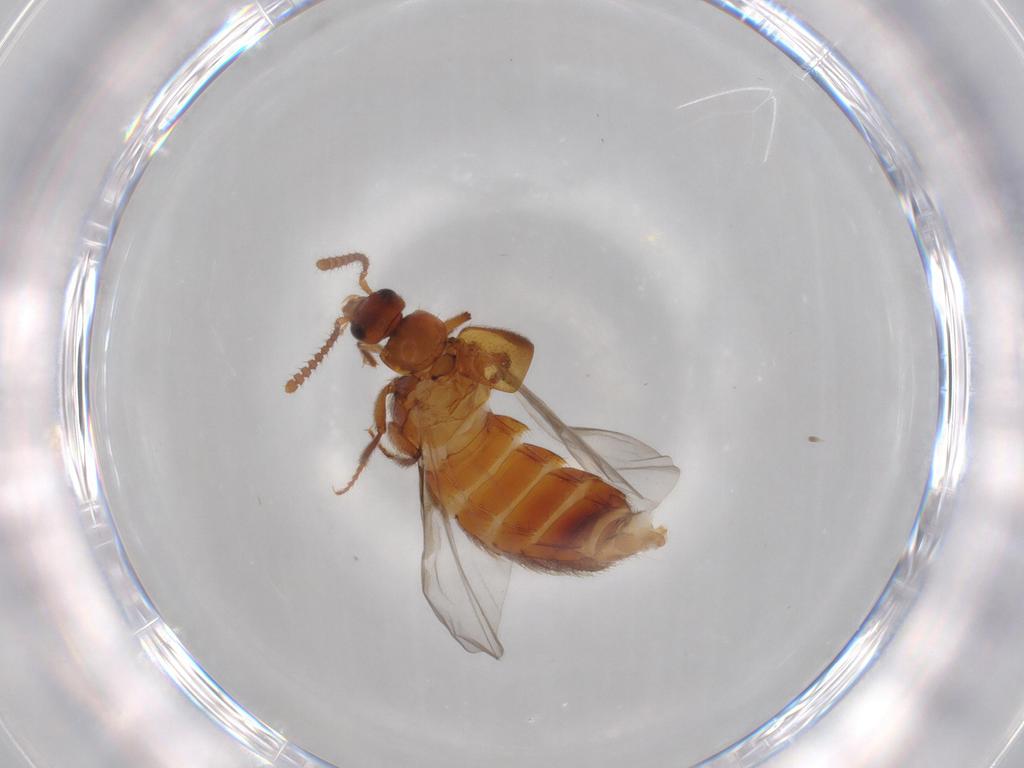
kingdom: Animalia
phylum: Arthropoda
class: Insecta
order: Coleoptera
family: Staphylinidae
